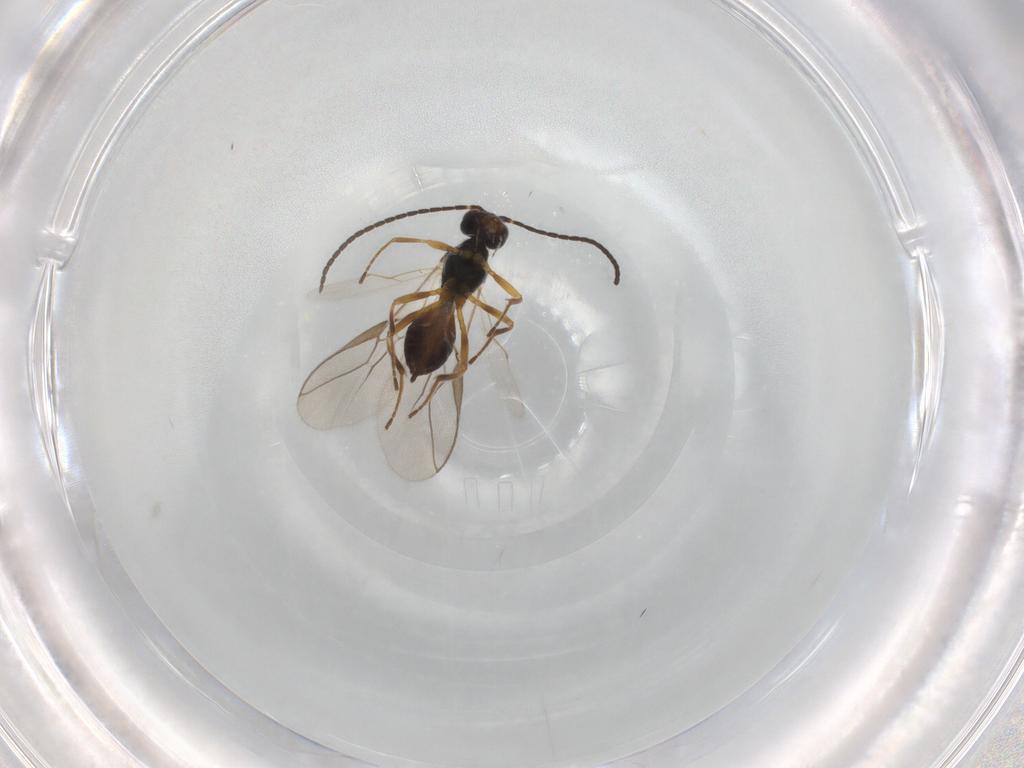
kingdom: Animalia
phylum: Arthropoda
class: Insecta
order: Hymenoptera
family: Braconidae
